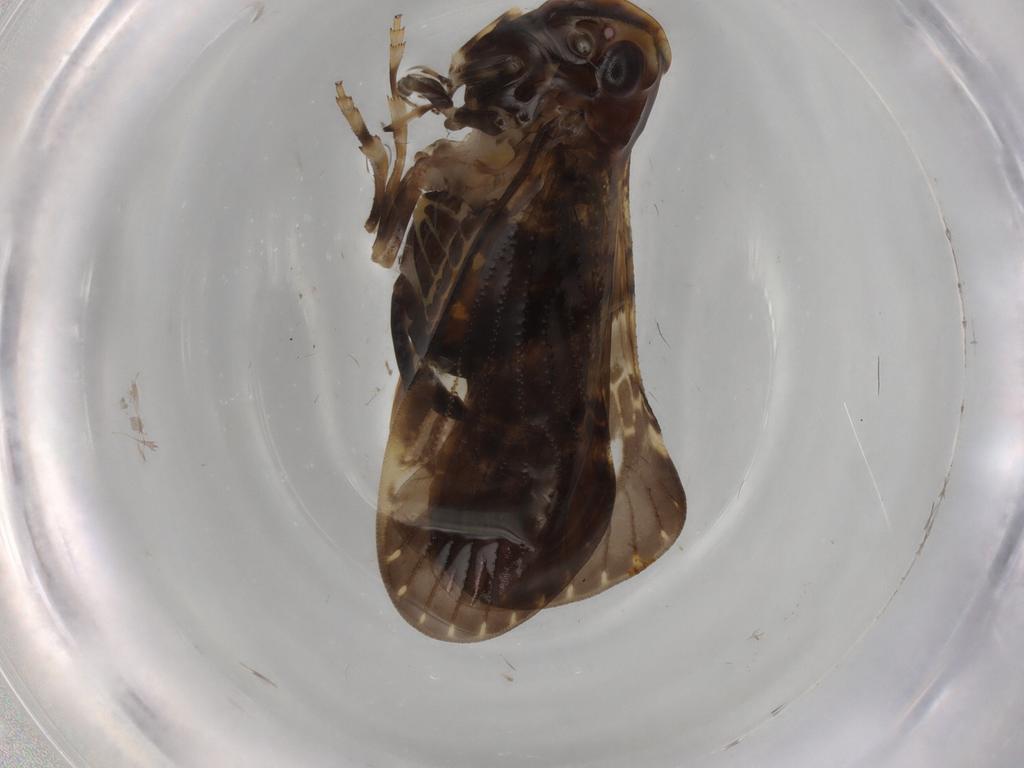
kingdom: Animalia
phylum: Arthropoda
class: Insecta
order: Hemiptera
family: Cixiidae
